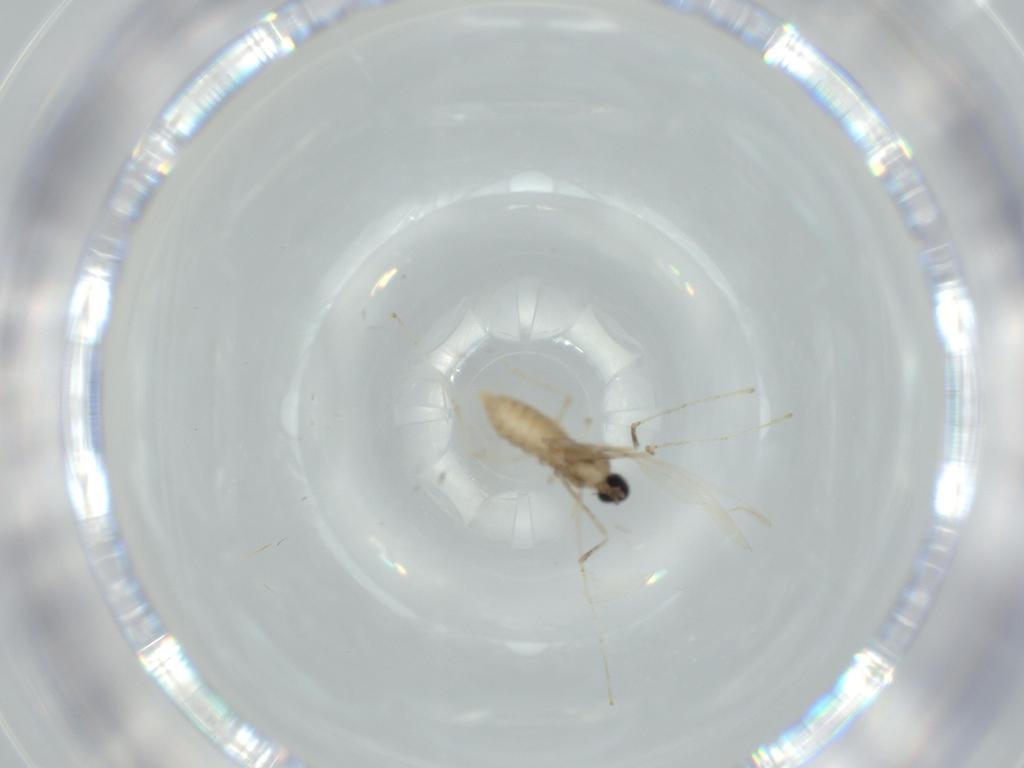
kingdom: Animalia
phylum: Arthropoda
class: Insecta
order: Diptera
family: Cecidomyiidae
